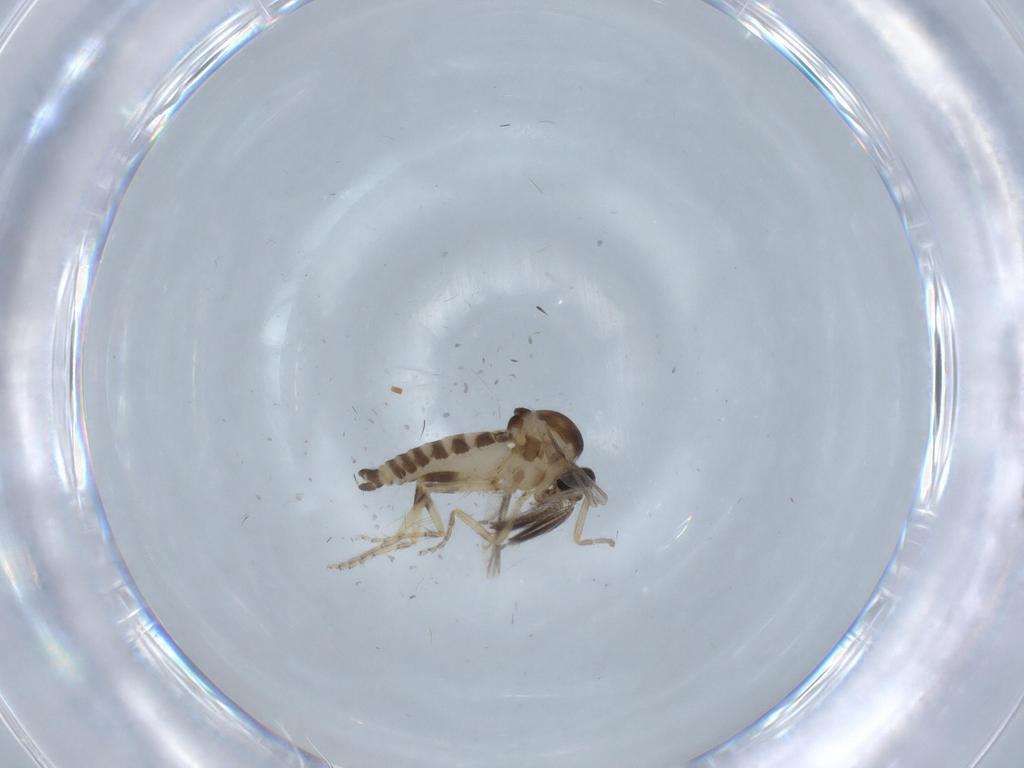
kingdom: Animalia
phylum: Arthropoda
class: Insecta
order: Diptera
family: Ceratopogonidae
